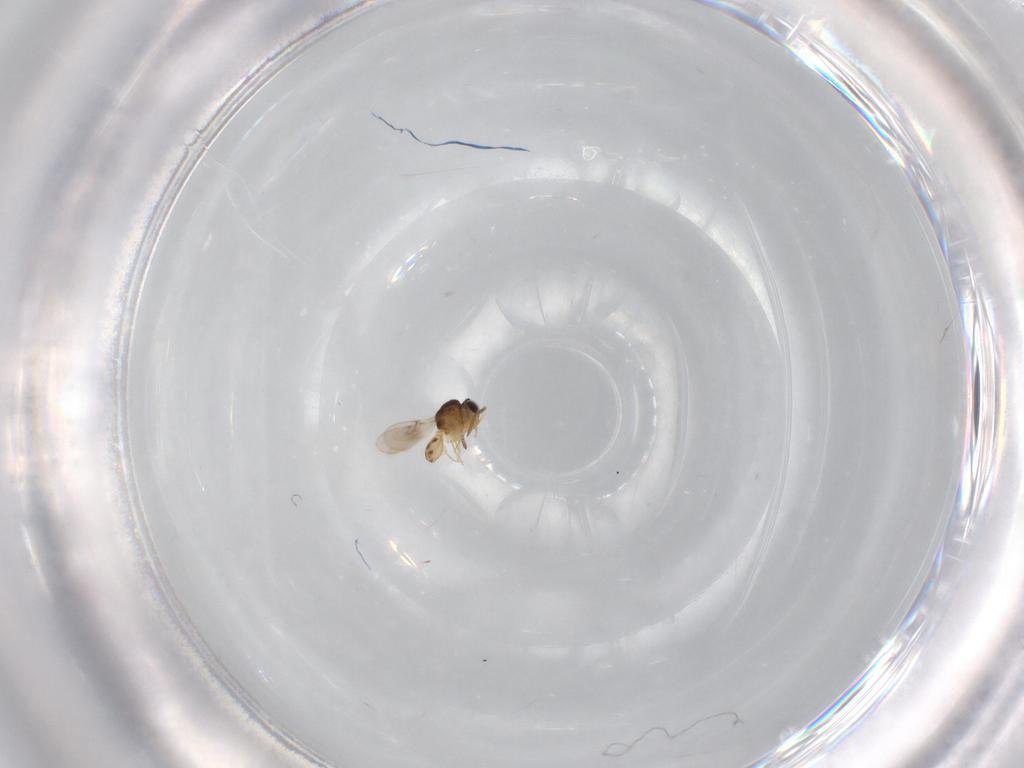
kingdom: Animalia
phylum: Arthropoda
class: Insecta
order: Hymenoptera
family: Scelionidae
